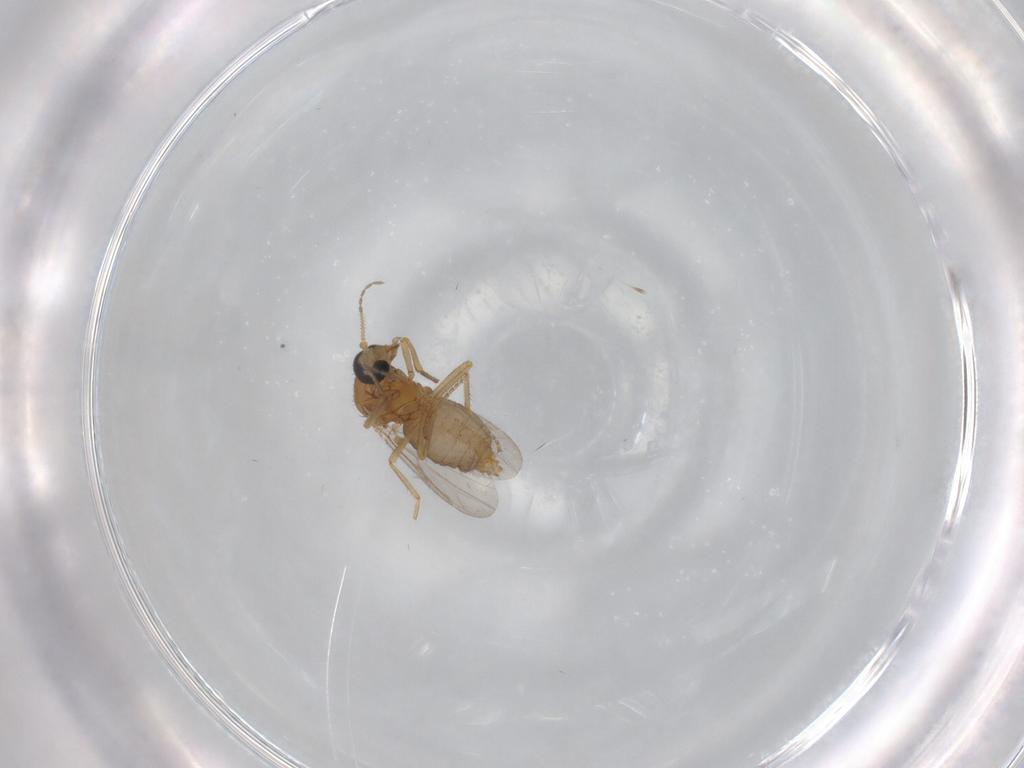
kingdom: Animalia
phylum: Arthropoda
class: Insecta
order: Diptera
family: Ceratopogonidae
